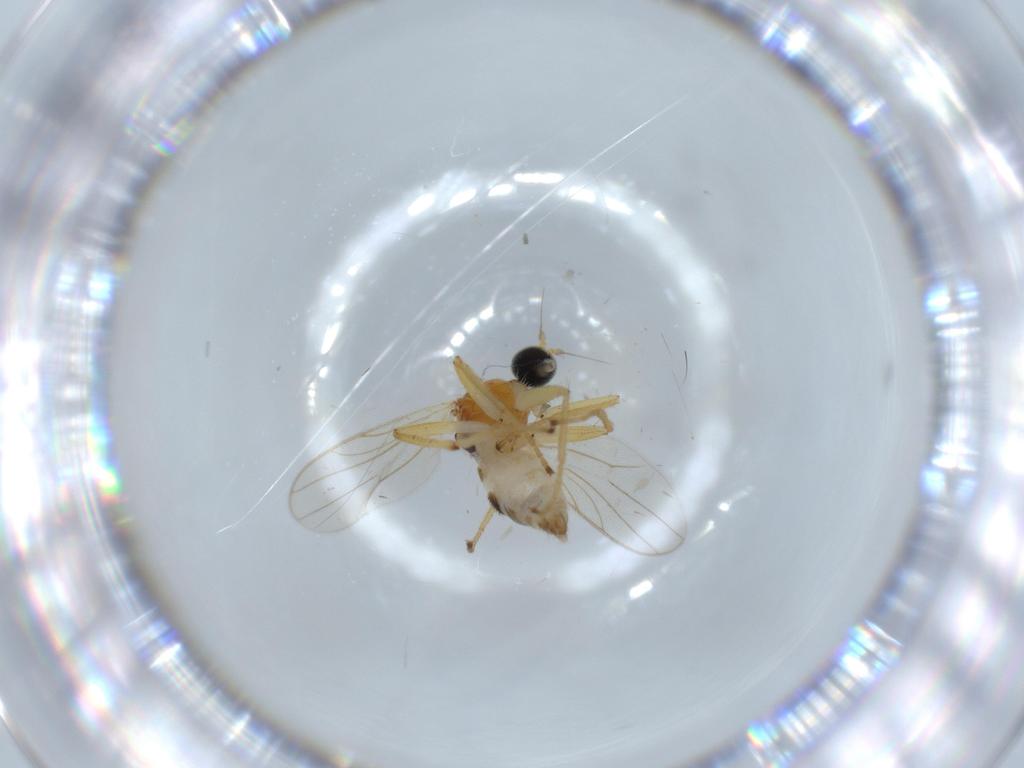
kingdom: Animalia
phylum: Arthropoda
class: Insecta
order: Diptera
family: Hybotidae
